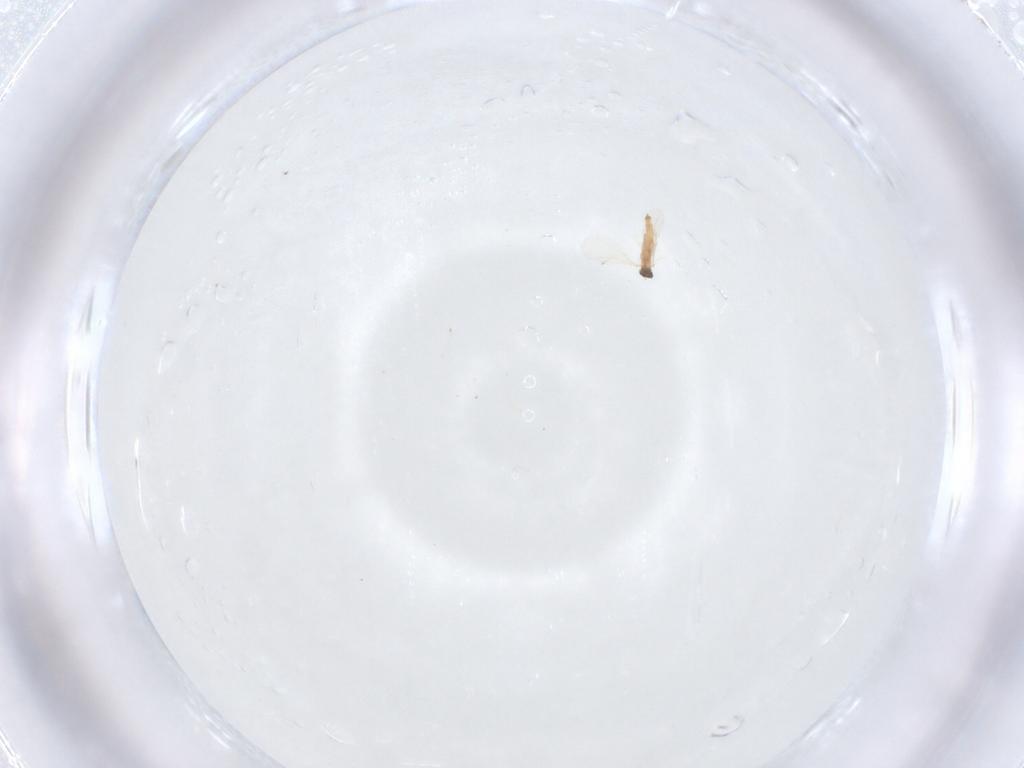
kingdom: Animalia
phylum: Arthropoda
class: Insecta
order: Diptera
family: Cecidomyiidae
